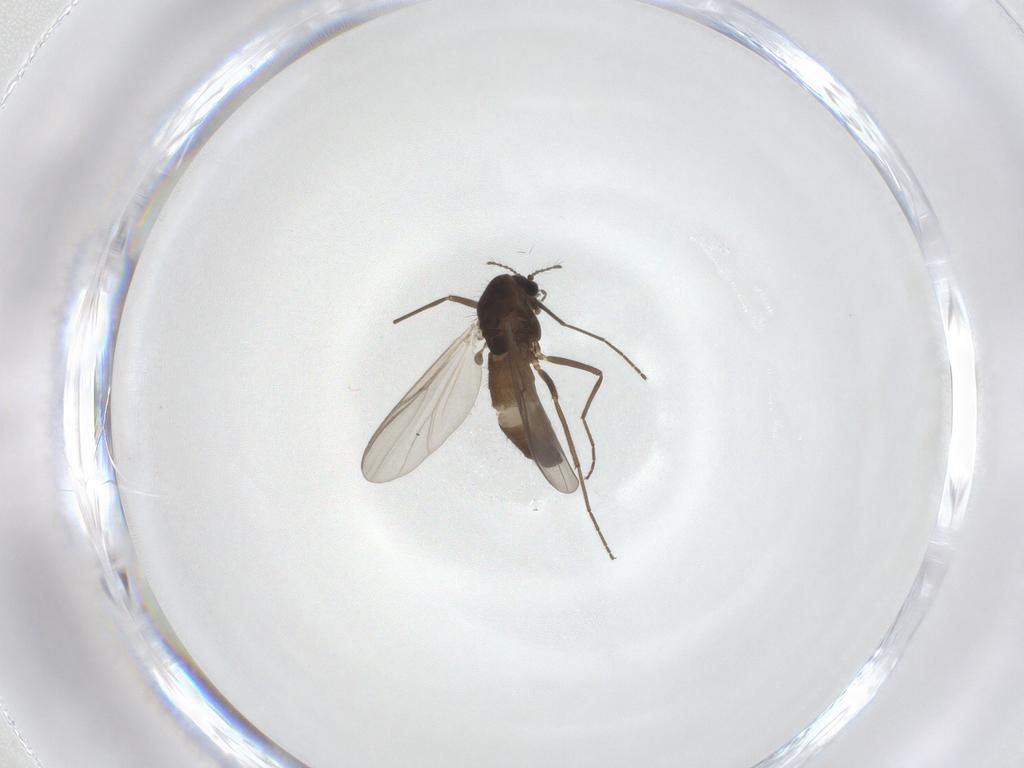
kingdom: Animalia
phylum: Arthropoda
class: Insecta
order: Diptera
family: Chironomidae
